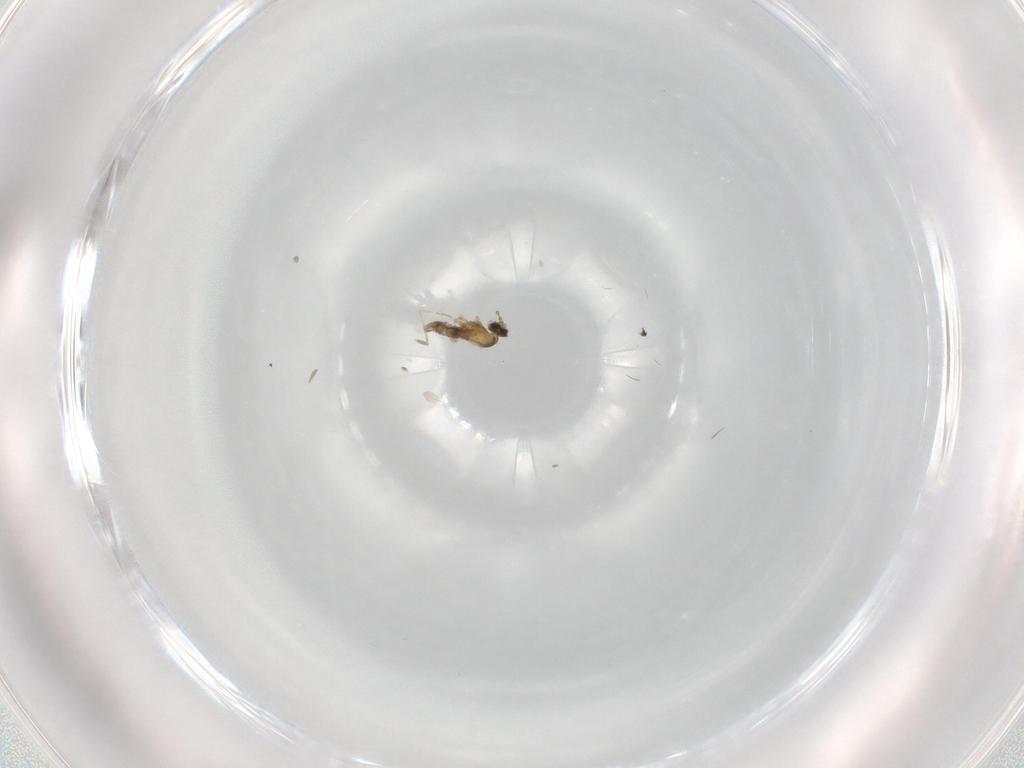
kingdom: Animalia
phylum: Arthropoda
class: Insecta
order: Diptera
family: Cecidomyiidae
